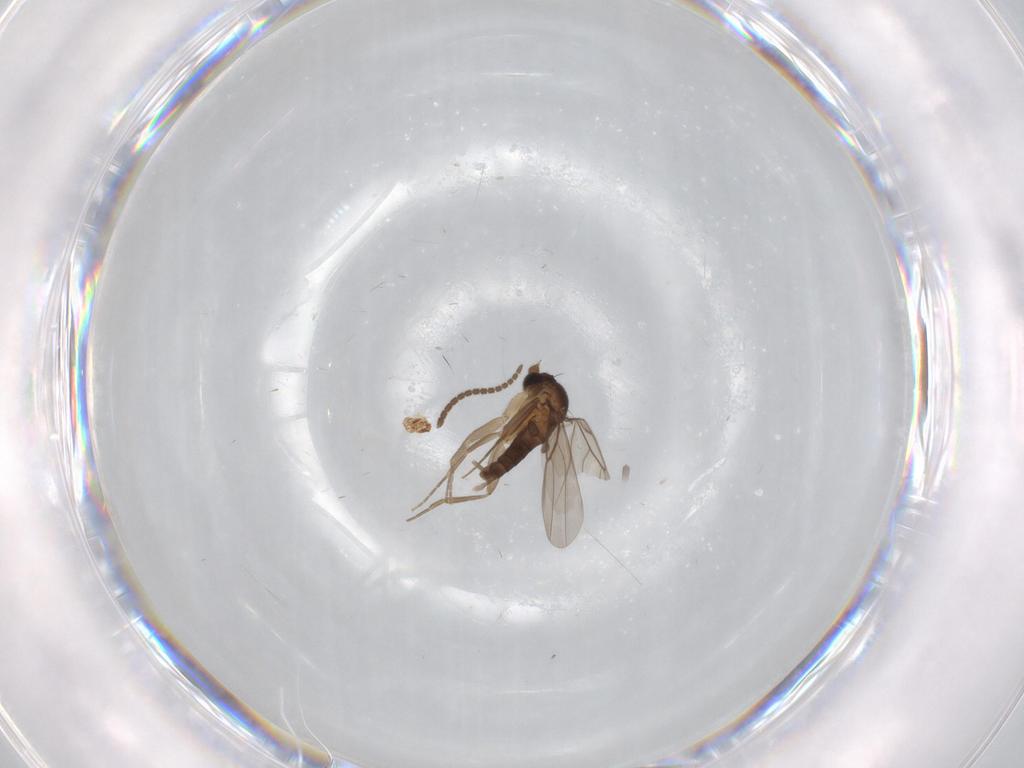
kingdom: Animalia
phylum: Arthropoda
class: Insecta
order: Diptera
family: Phoridae
